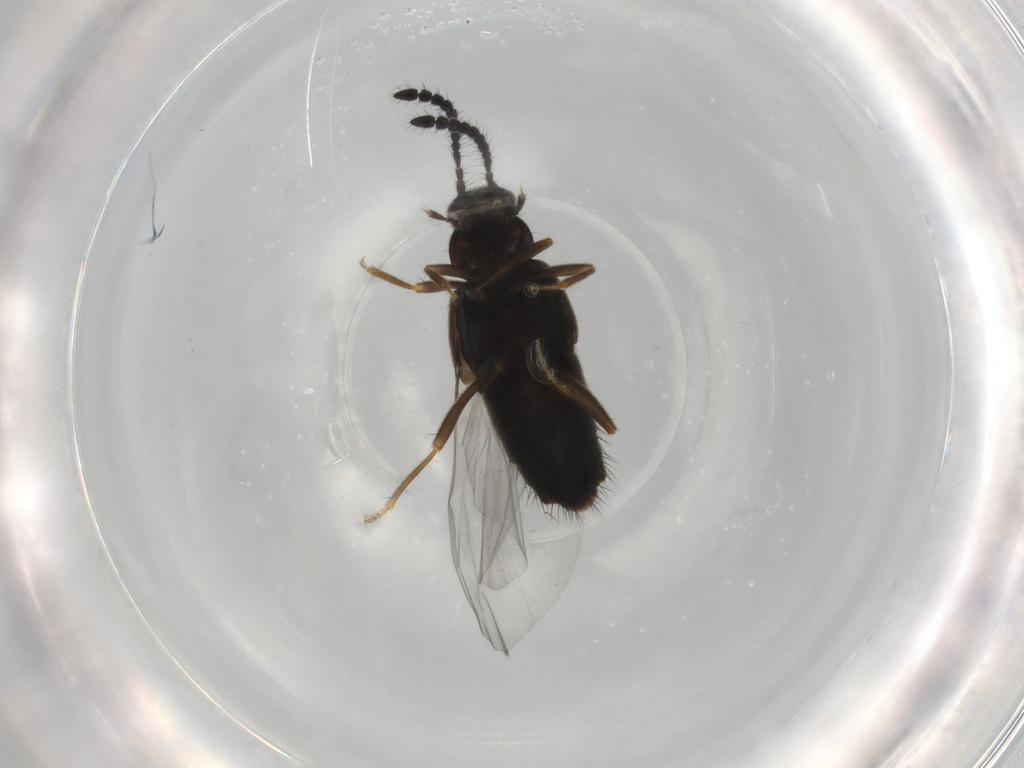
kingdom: Animalia
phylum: Arthropoda
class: Insecta
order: Coleoptera
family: Staphylinidae
